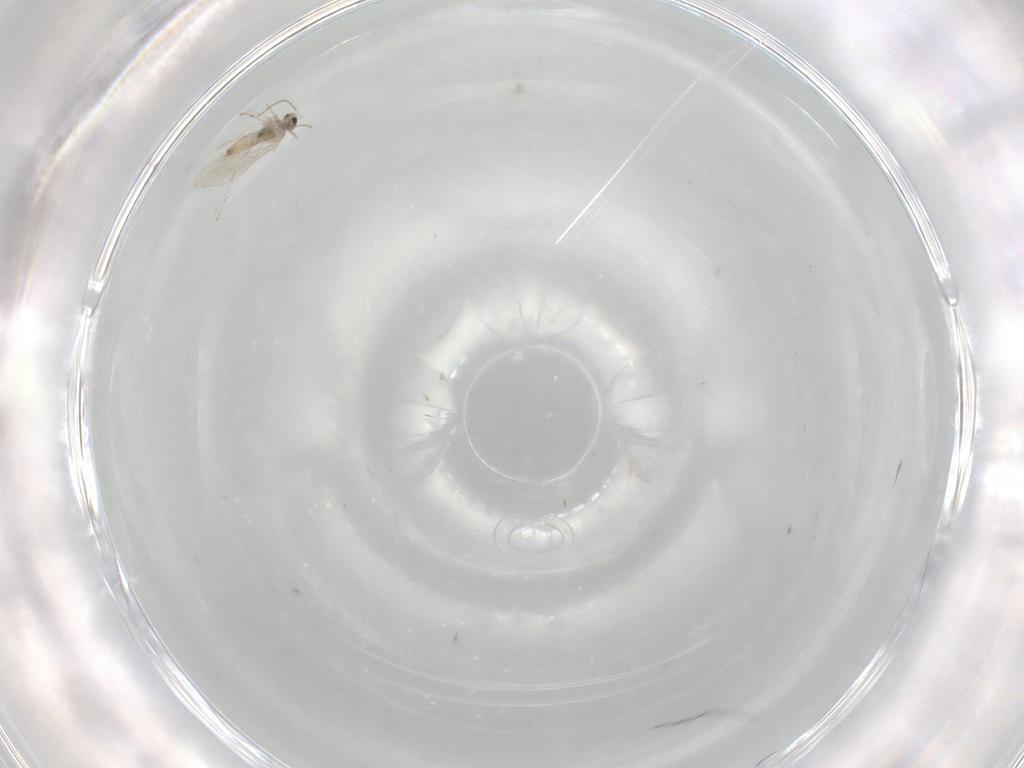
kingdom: Animalia
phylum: Arthropoda
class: Insecta
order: Diptera
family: Cecidomyiidae
